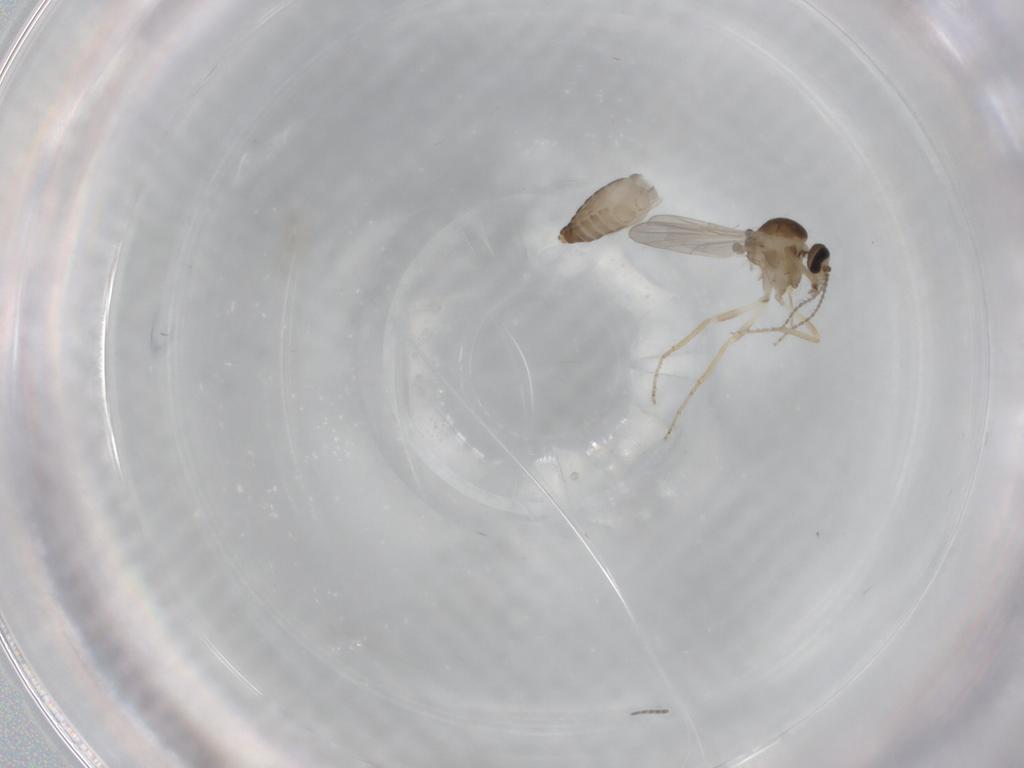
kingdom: Animalia
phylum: Arthropoda
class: Insecta
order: Diptera
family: Ceratopogonidae
